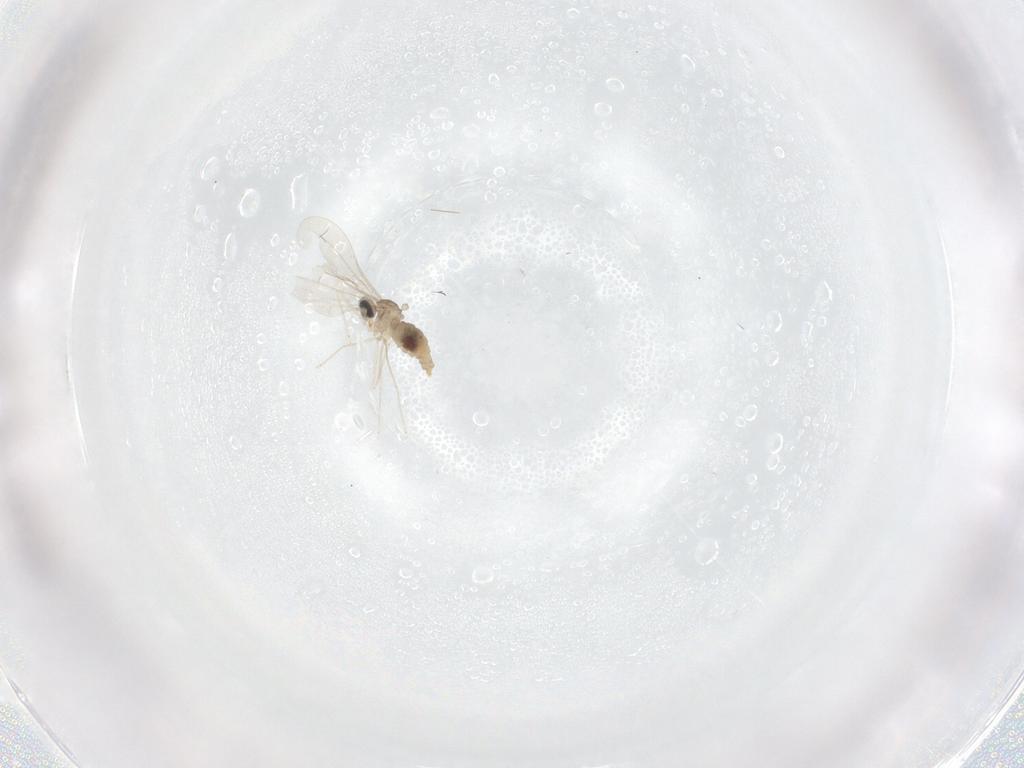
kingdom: Animalia
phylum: Arthropoda
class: Insecta
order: Diptera
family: Cecidomyiidae
